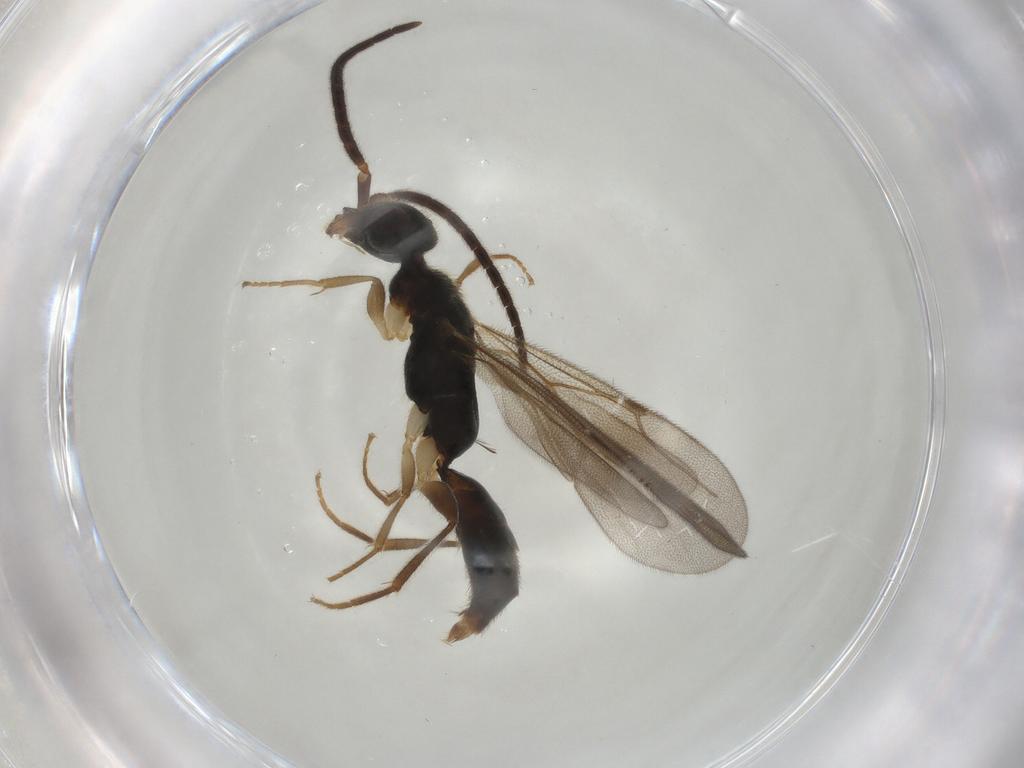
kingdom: Animalia
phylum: Arthropoda
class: Insecta
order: Hymenoptera
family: Bethylidae
